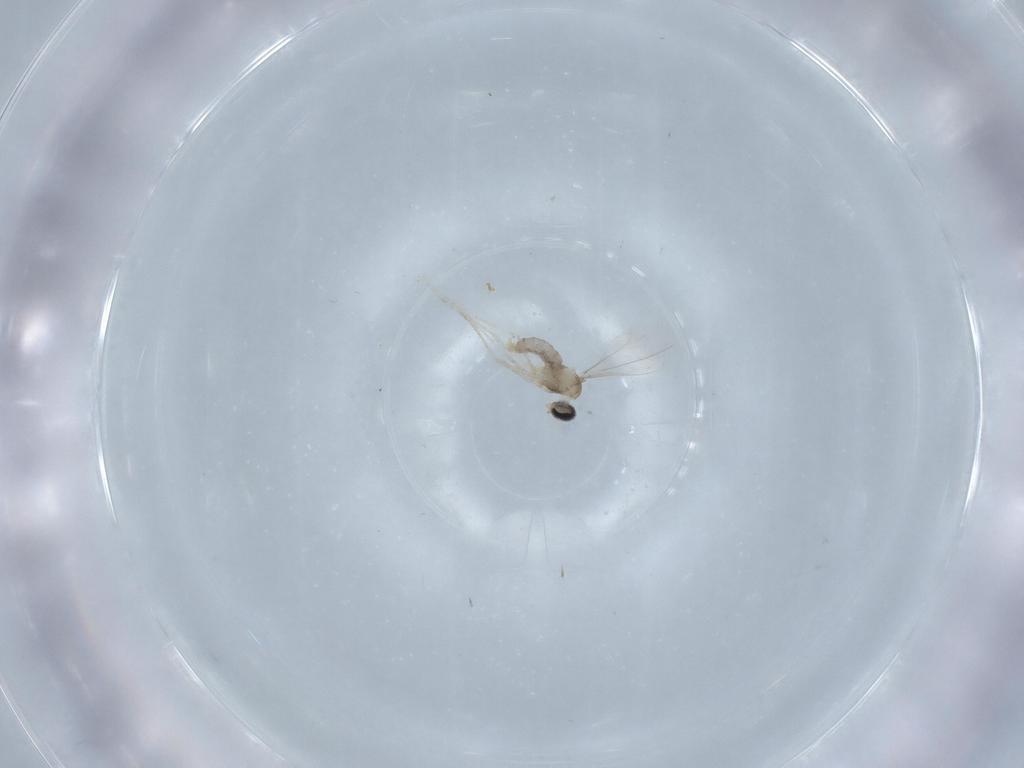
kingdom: Animalia
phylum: Arthropoda
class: Insecta
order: Diptera
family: Cecidomyiidae
